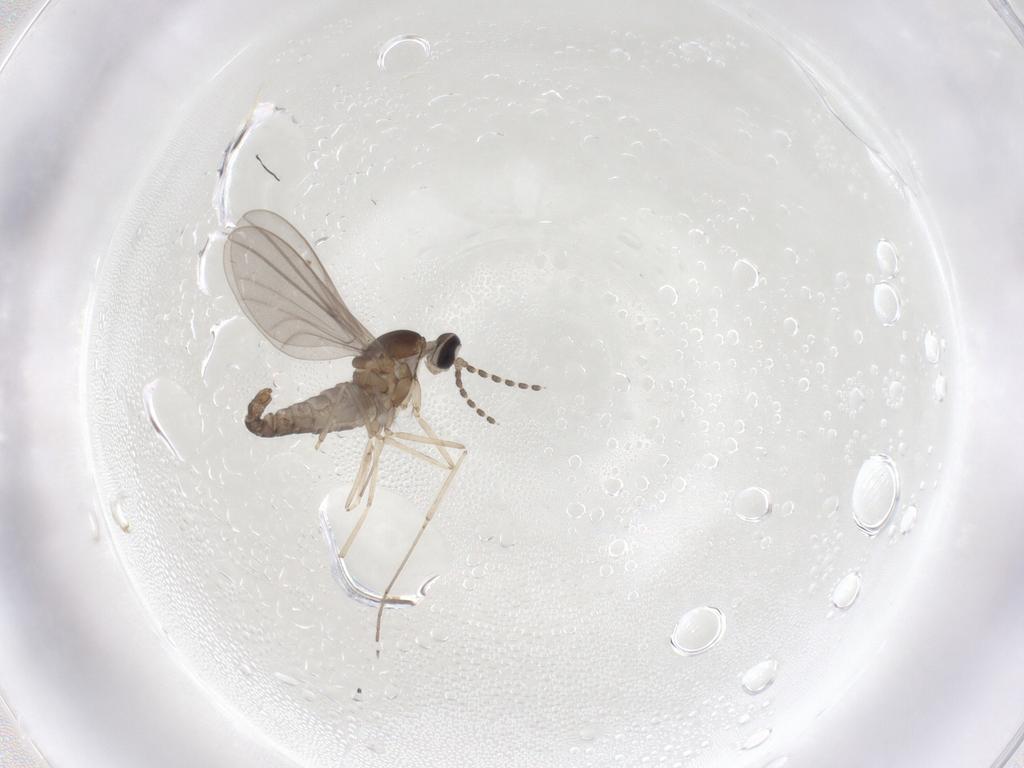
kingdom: Animalia
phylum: Arthropoda
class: Insecta
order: Diptera
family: Cecidomyiidae
